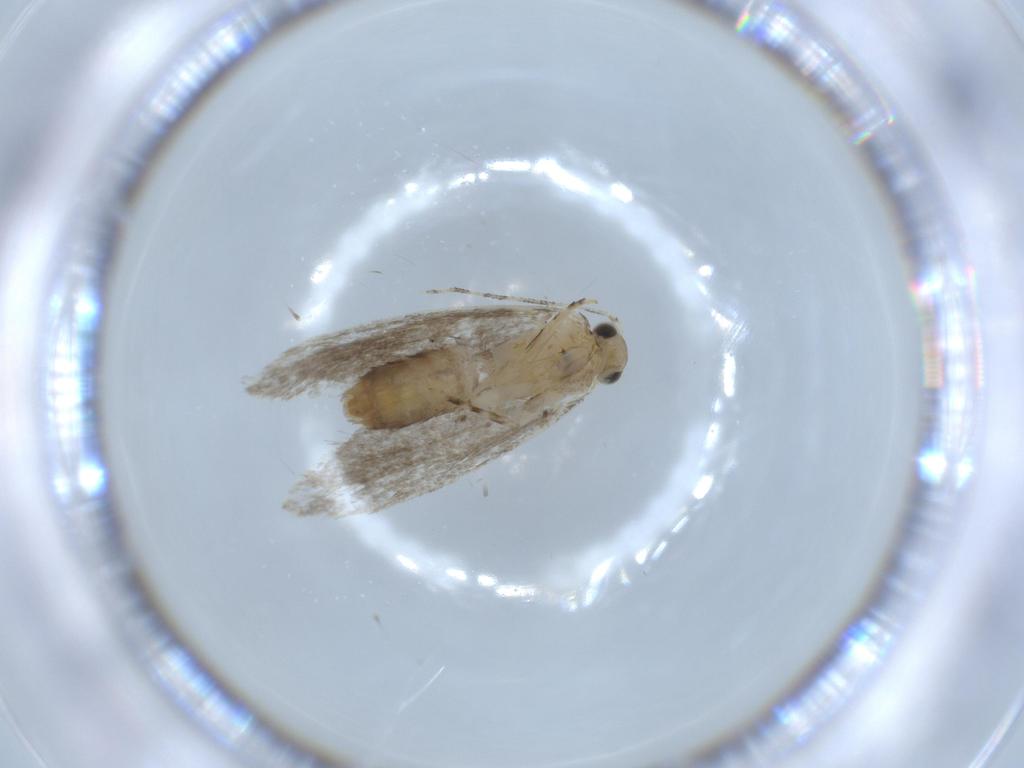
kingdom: Animalia
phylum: Arthropoda
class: Insecta
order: Lepidoptera
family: Tineidae
